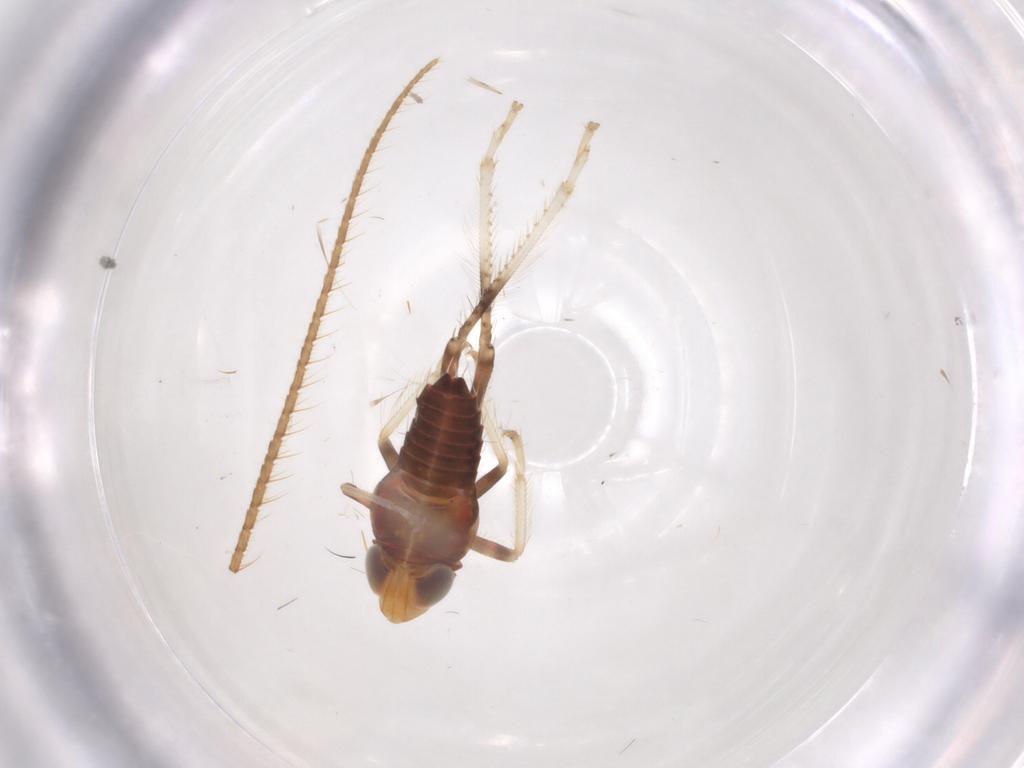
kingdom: Animalia
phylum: Arthropoda
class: Insecta
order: Hemiptera
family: Cicadellidae
